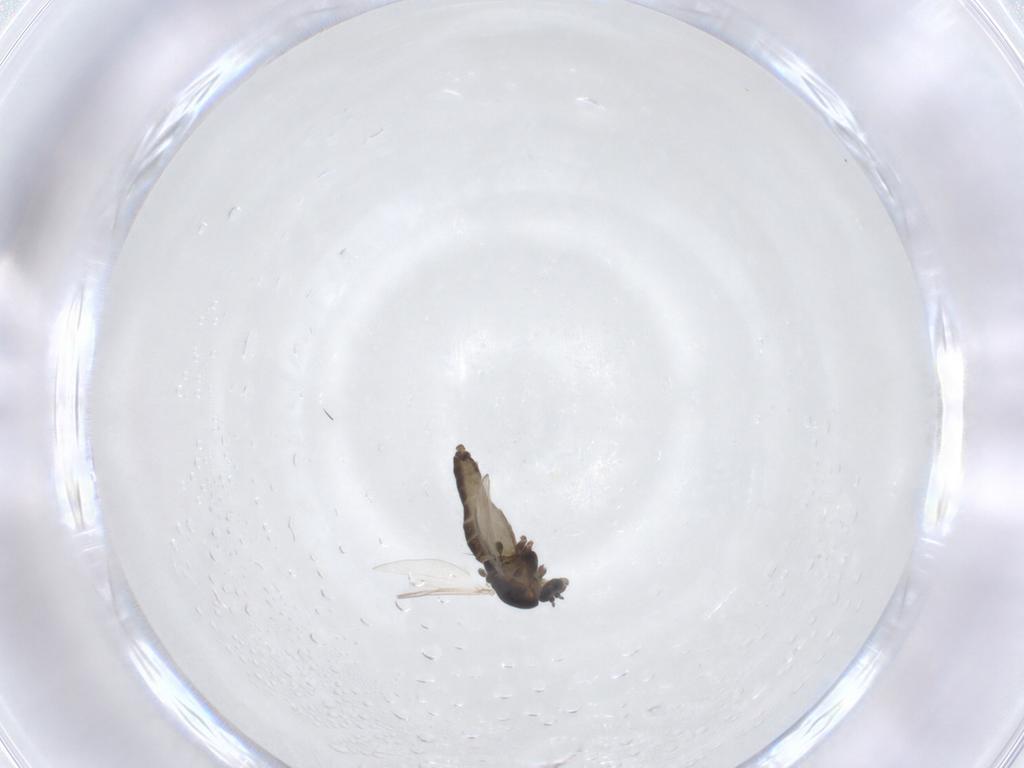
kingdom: Animalia
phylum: Arthropoda
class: Insecta
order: Diptera
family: Chironomidae
